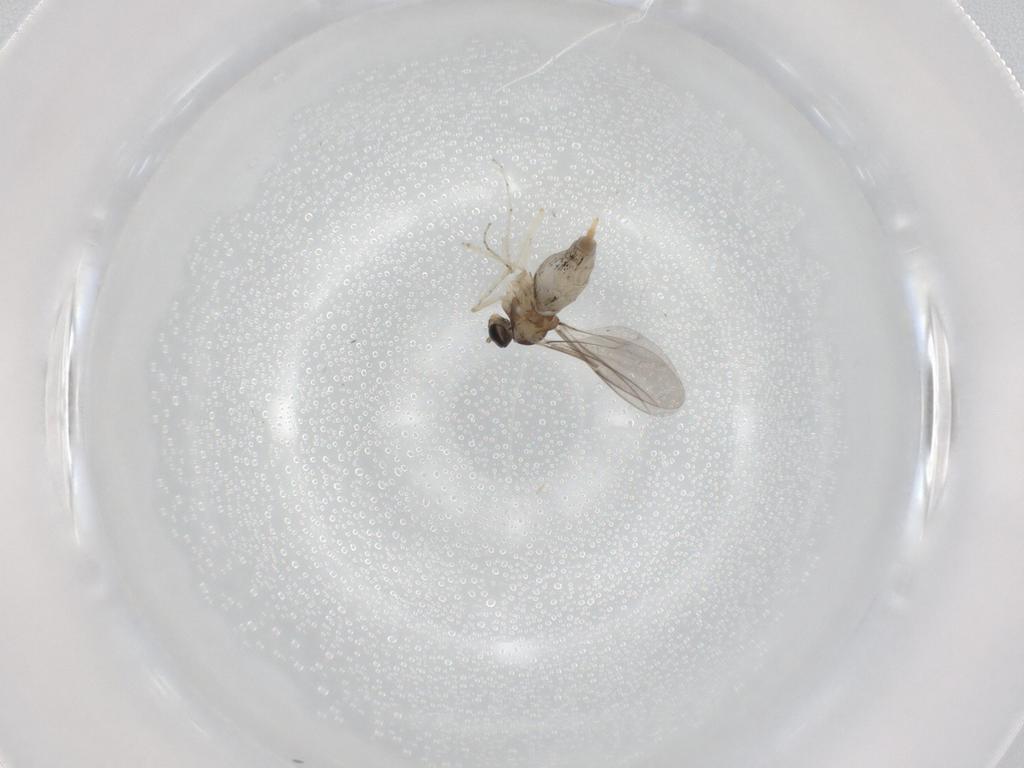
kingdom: Animalia
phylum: Arthropoda
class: Insecta
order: Diptera
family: Cecidomyiidae
